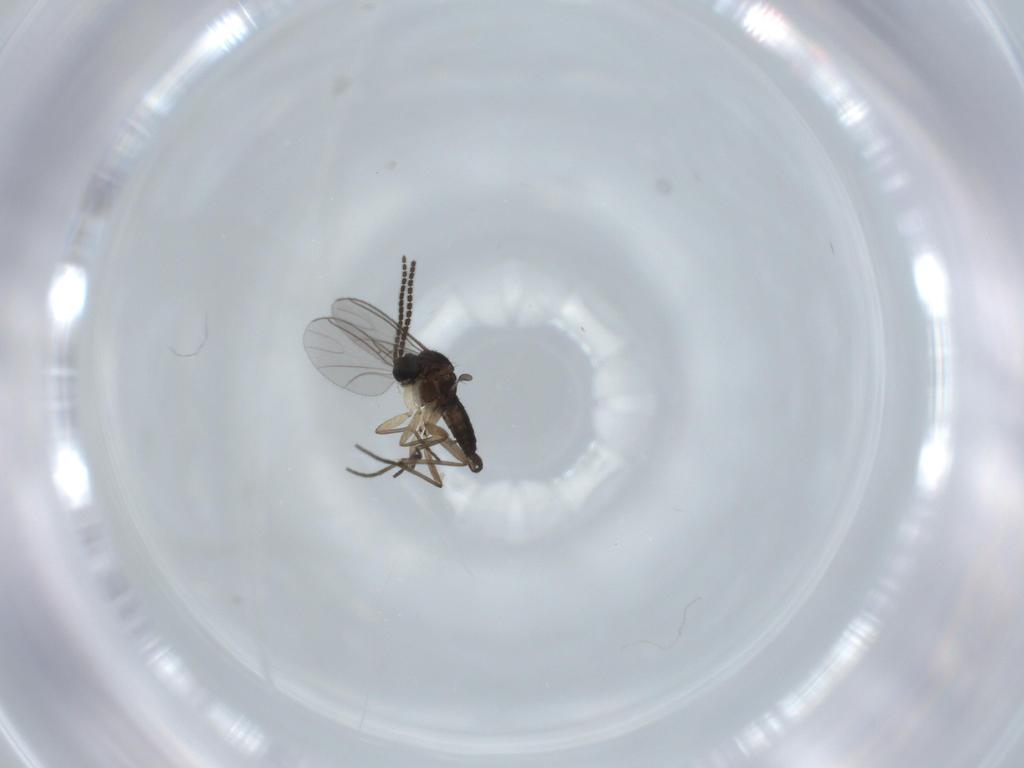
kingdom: Animalia
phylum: Arthropoda
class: Insecta
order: Diptera
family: Sciaridae
